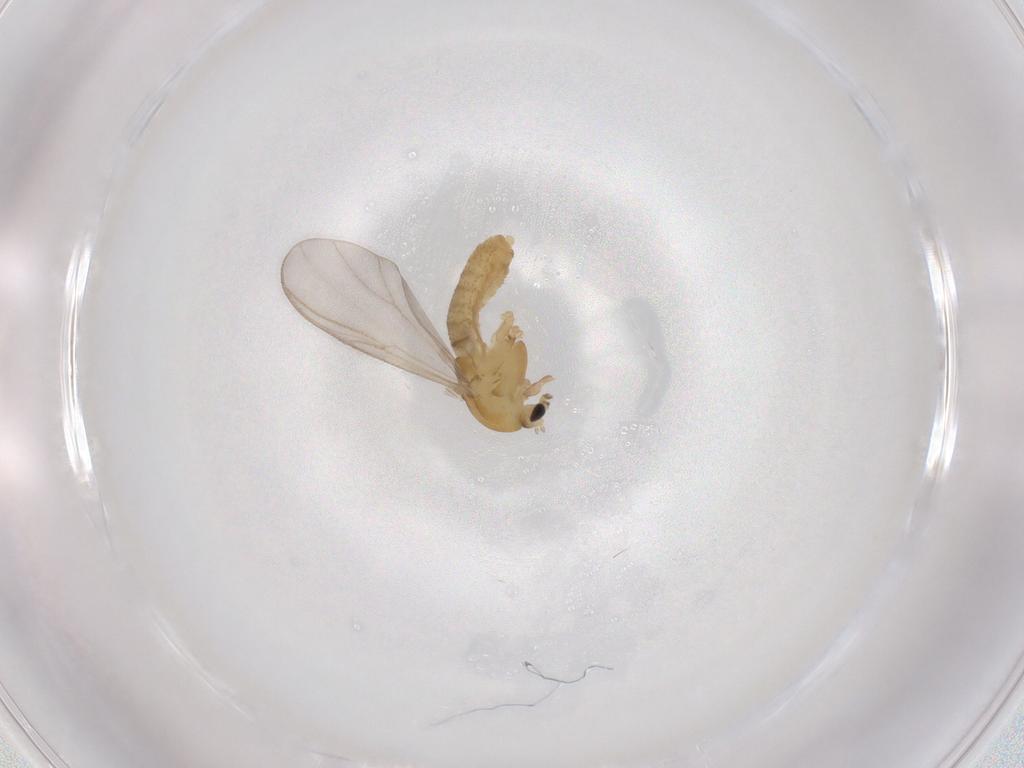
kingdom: Animalia
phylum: Arthropoda
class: Insecta
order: Diptera
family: Chironomidae
